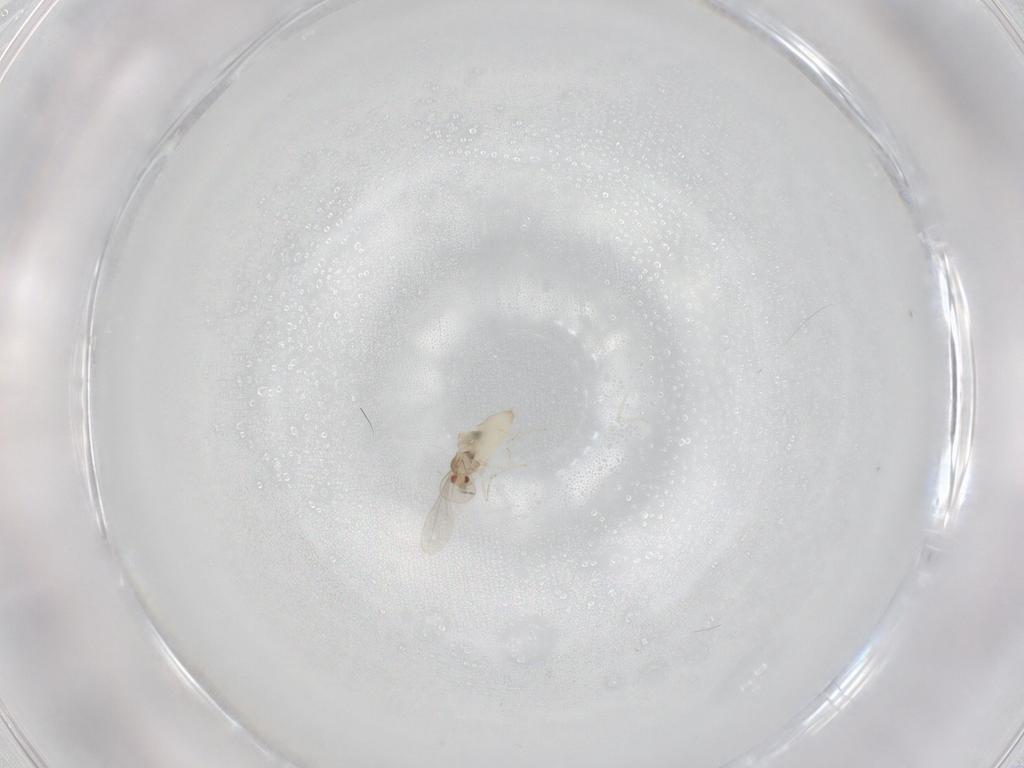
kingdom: Animalia
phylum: Arthropoda
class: Insecta
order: Diptera
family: Cecidomyiidae
